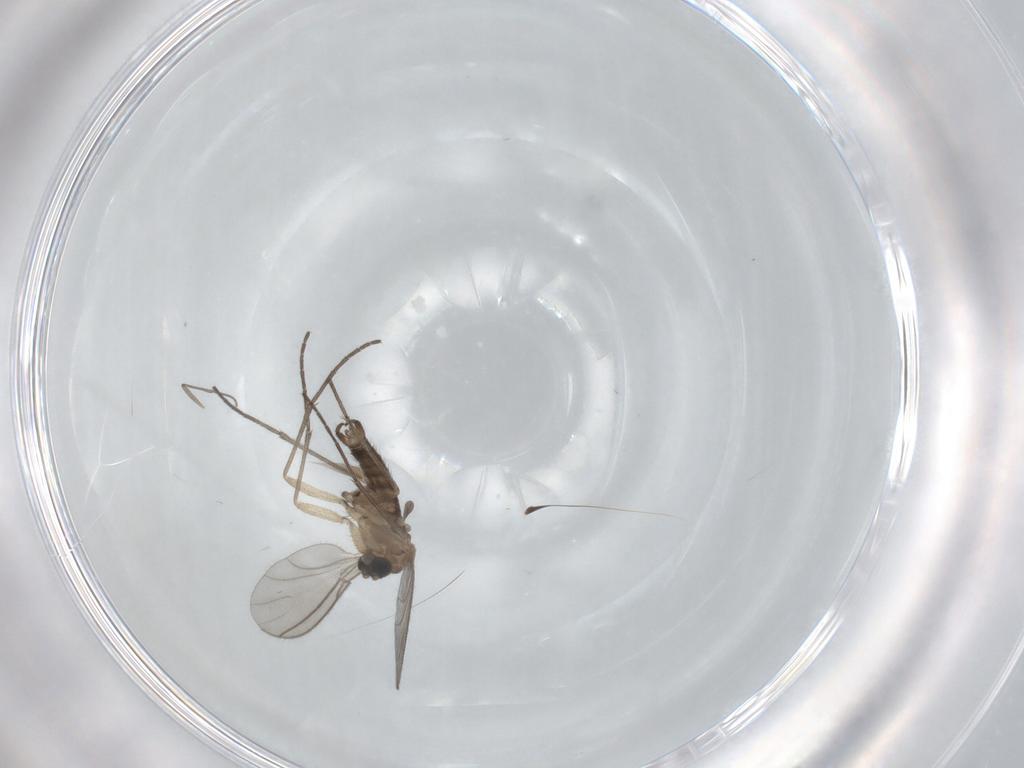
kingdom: Animalia
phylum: Arthropoda
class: Insecta
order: Diptera
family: Cecidomyiidae
